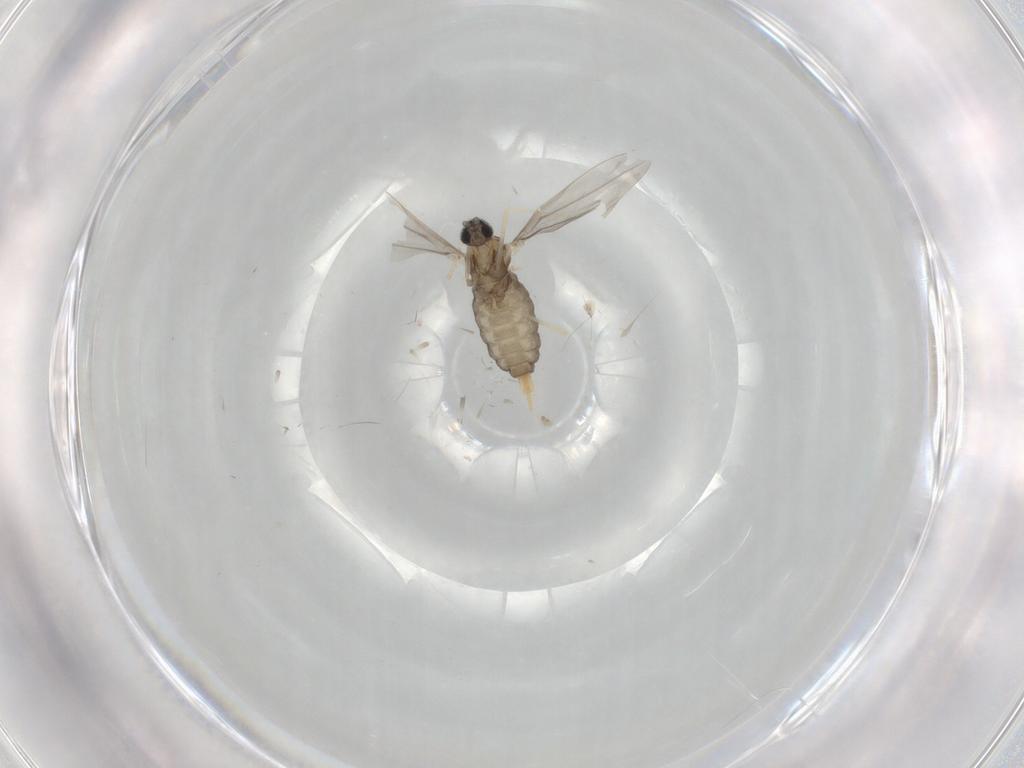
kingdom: Animalia
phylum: Arthropoda
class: Insecta
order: Diptera
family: Cecidomyiidae
